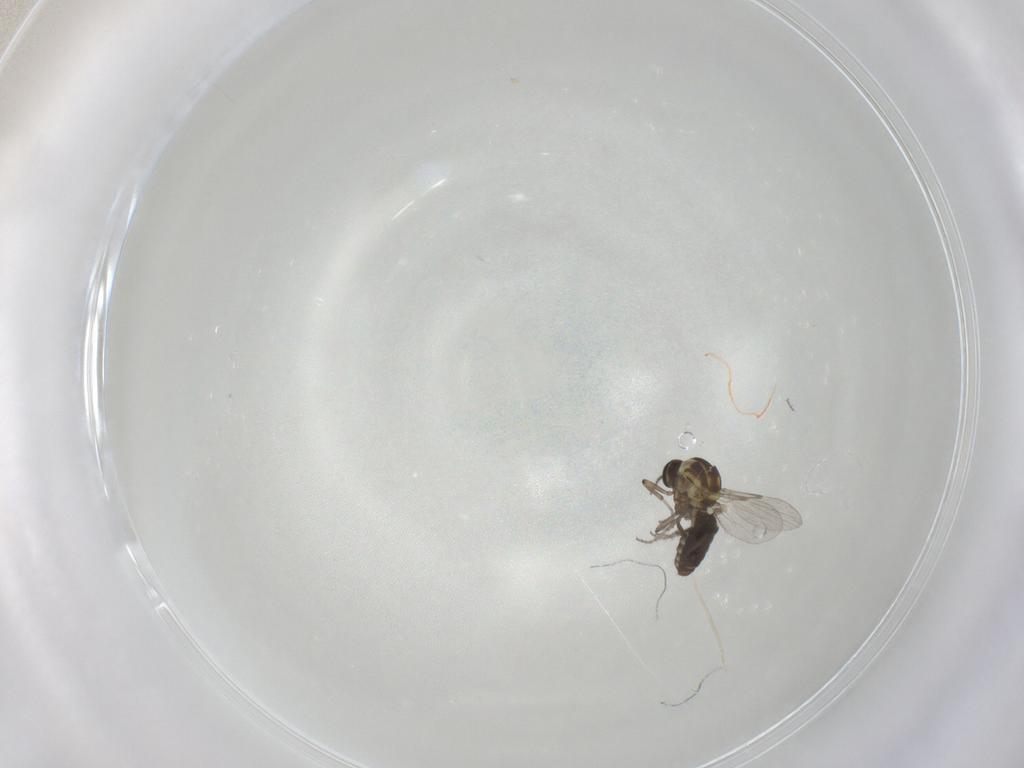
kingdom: Animalia
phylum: Arthropoda
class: Insecta
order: Diptera
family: Ceratopogonidae
